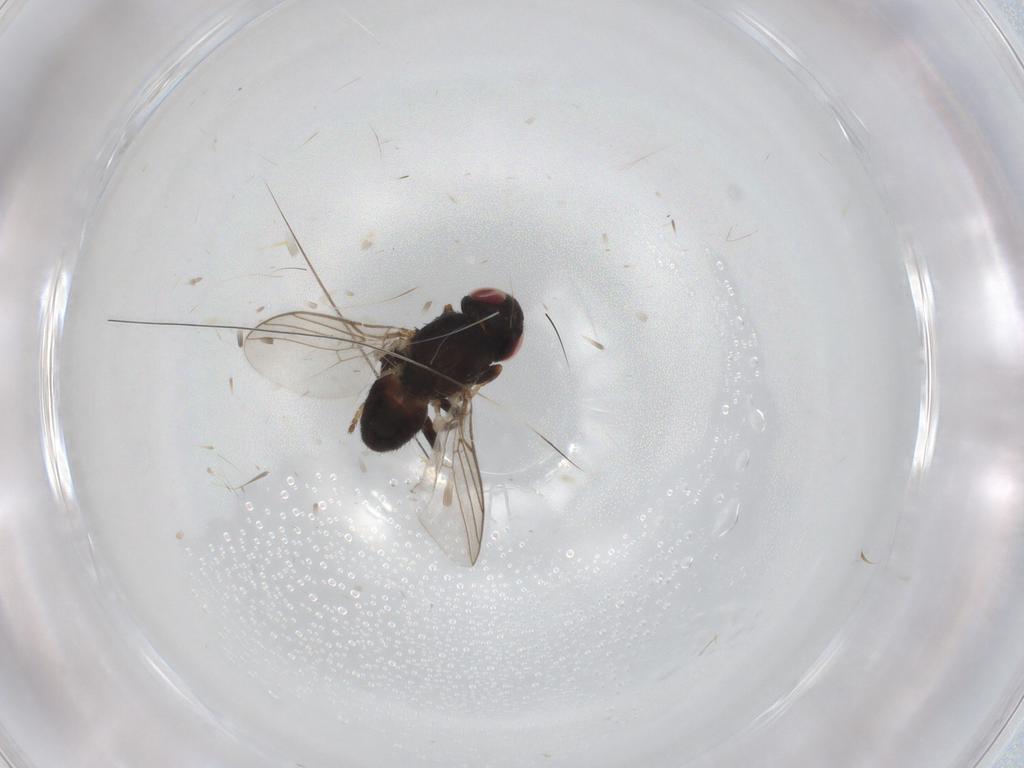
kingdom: Animalia
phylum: Arthropoda
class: Insecta
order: Diptera
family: Chloropidae
